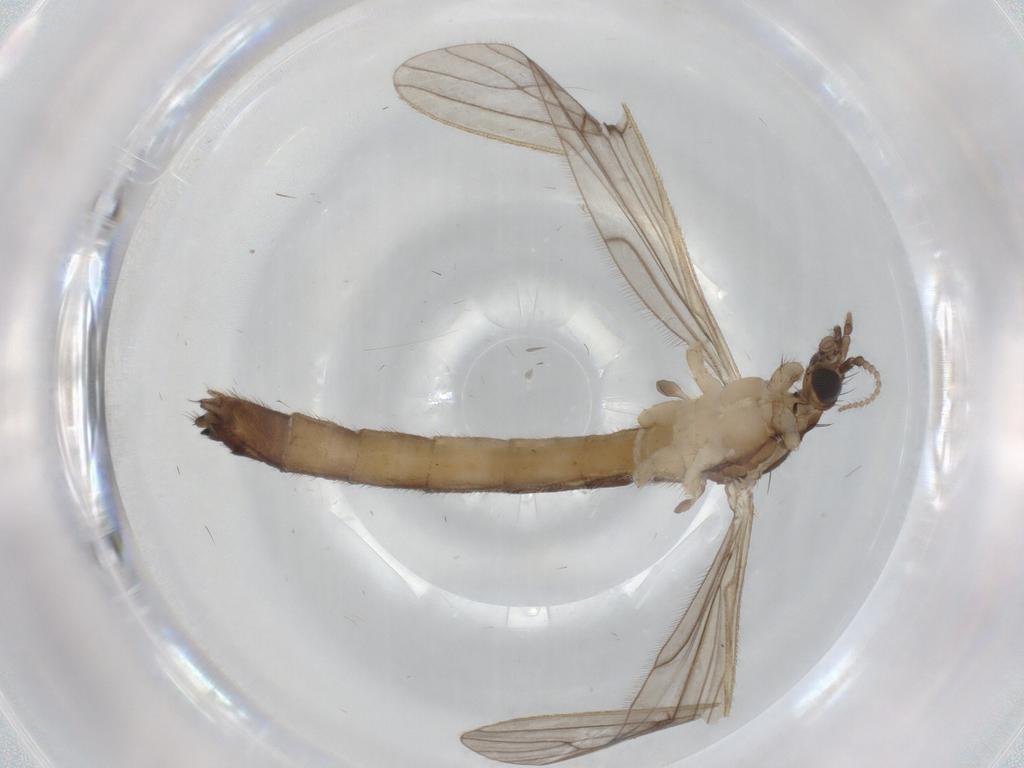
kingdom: Animalia
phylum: Arthropoda
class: Insecta
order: Diptera
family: Limoniidae
